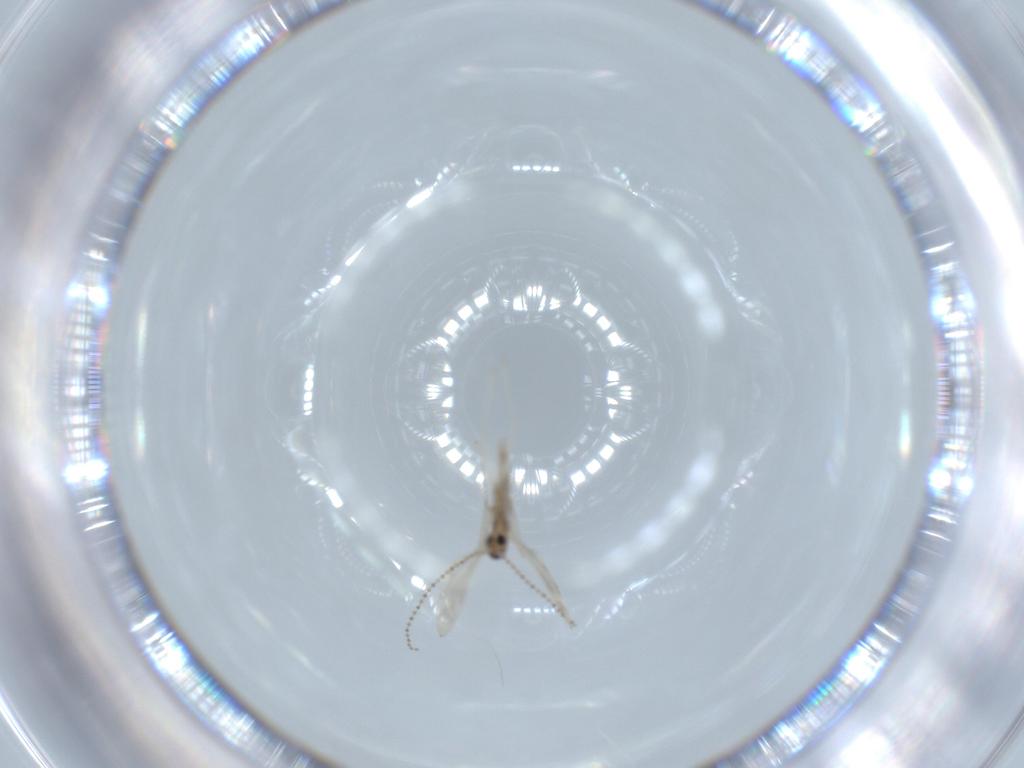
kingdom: Animalia
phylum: Arthropoda
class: Insecta
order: Diptera
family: Cecidomyiidae
